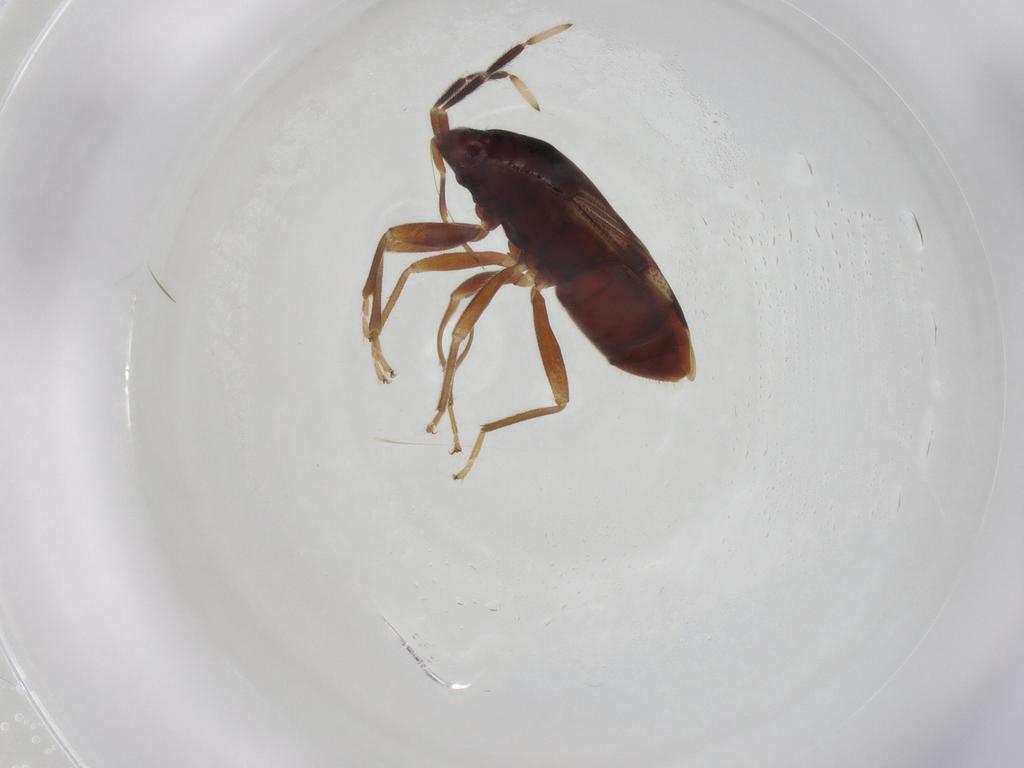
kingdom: Animalia
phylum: Arthropoda
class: Insecta
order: Hemiptera
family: Rhyparochromidae
